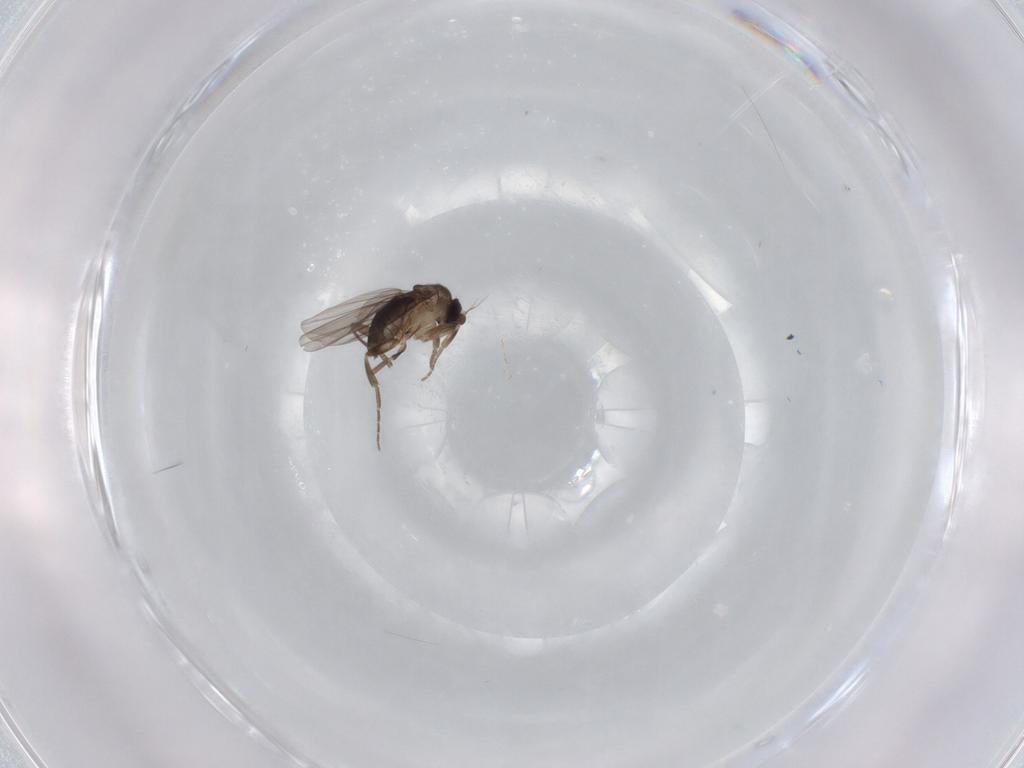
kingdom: Animalia
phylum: Arthropoda
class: Insecta
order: Diptera
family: Phoridae
